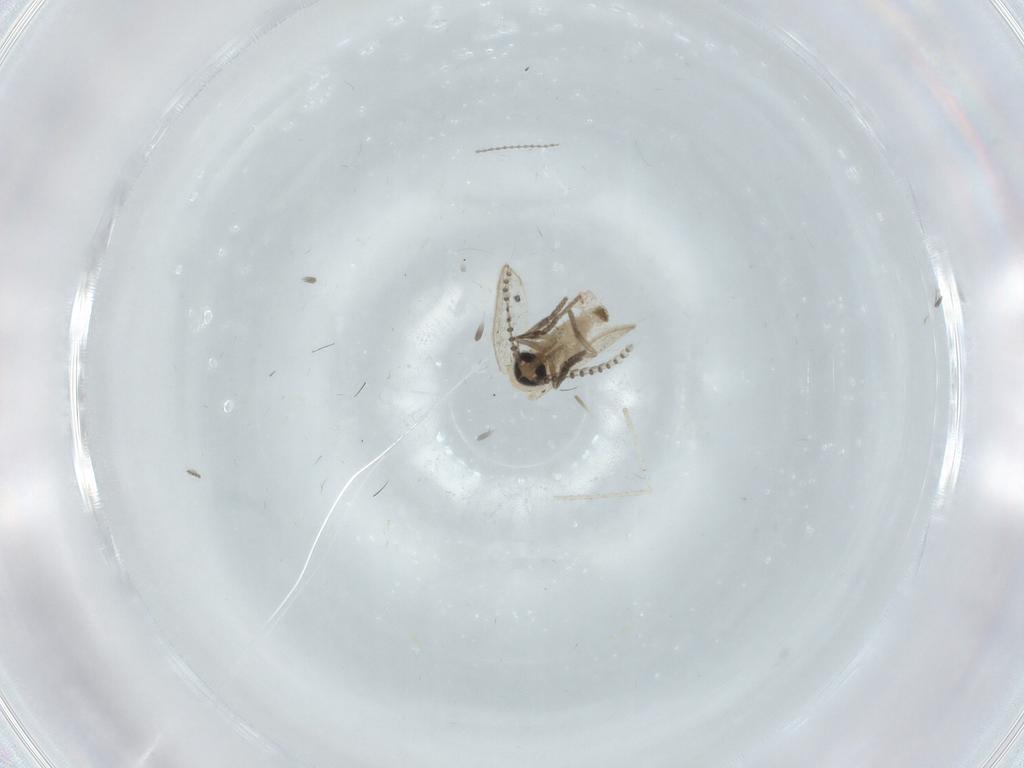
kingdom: Animalia
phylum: Arthropoda
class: Insecta
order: Diptera
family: Psychodidae
